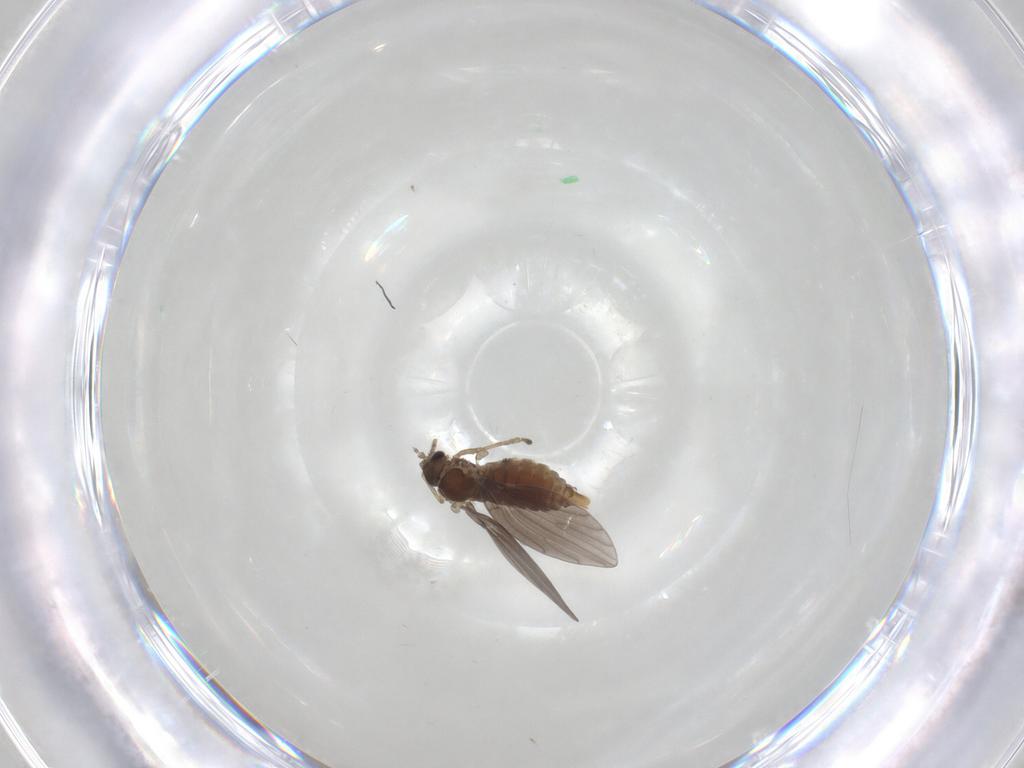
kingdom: Animalia
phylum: Arthropoda
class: Insecta
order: Diptera
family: Psychodidae
